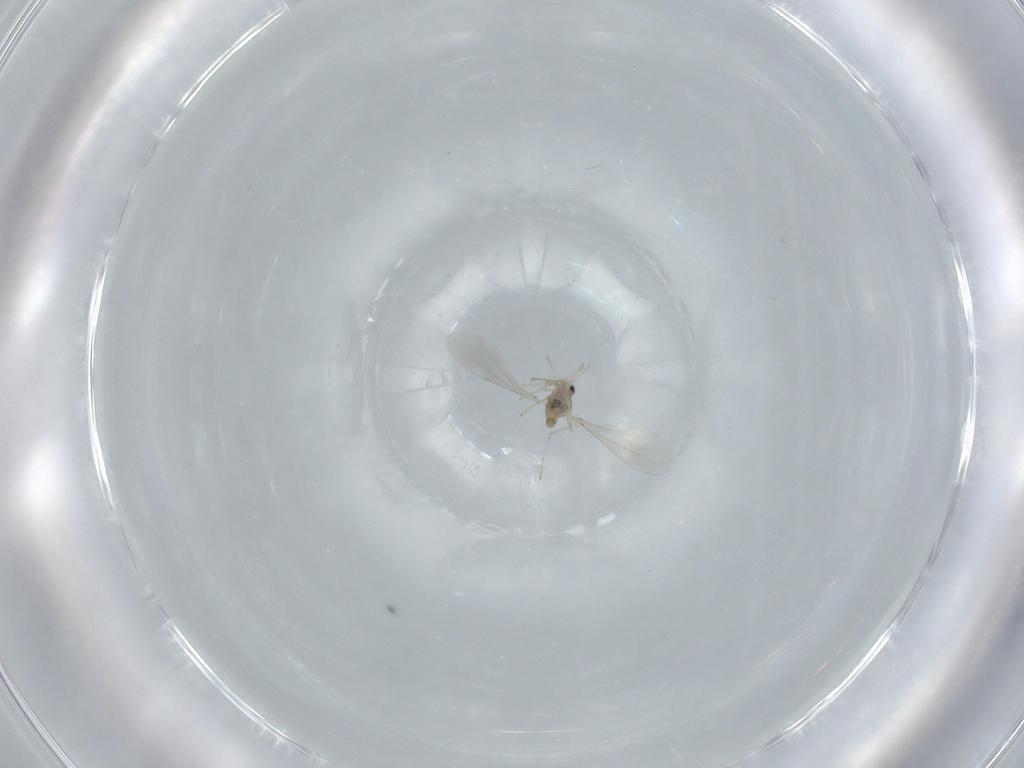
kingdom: Animalia
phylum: Arthropoda
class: Insecta
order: Diptera
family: Cecidomyiidae
